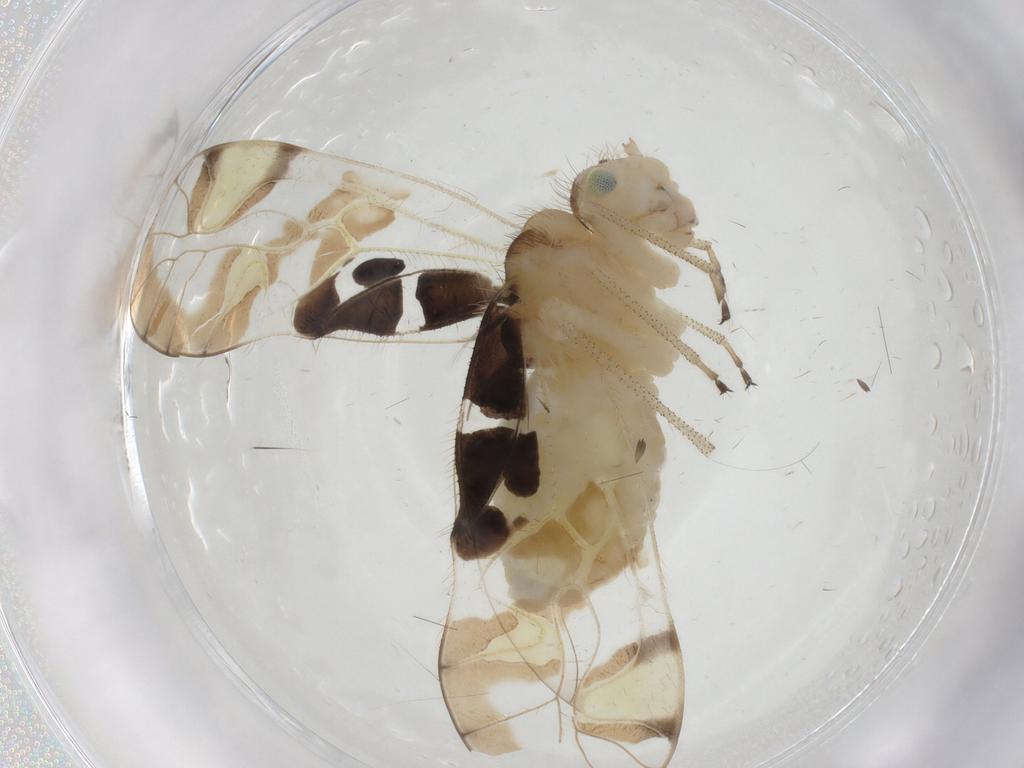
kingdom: Animalia
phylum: Arthropoda
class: Insecta
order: Psocodea
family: Amphipsocidae
